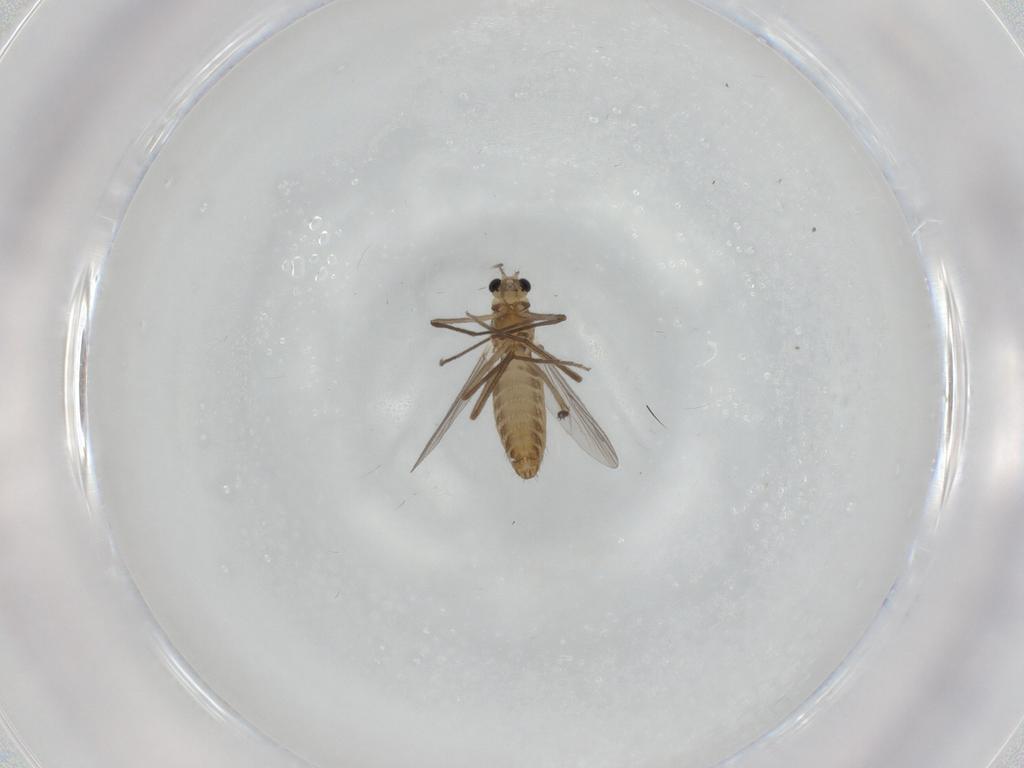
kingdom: Animalia
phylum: Arthropoda
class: Insecta
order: Diptera
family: Chironomidae
